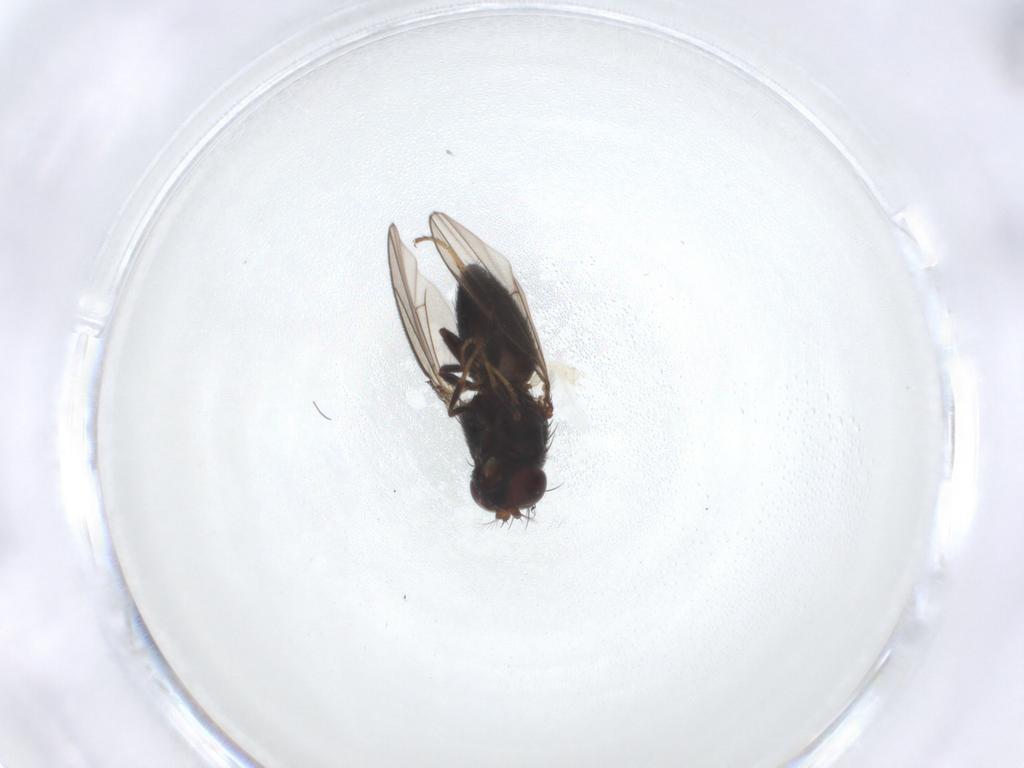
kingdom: Animalia
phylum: Arthropoda
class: Insecta
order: Diptera
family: Ephydridae
